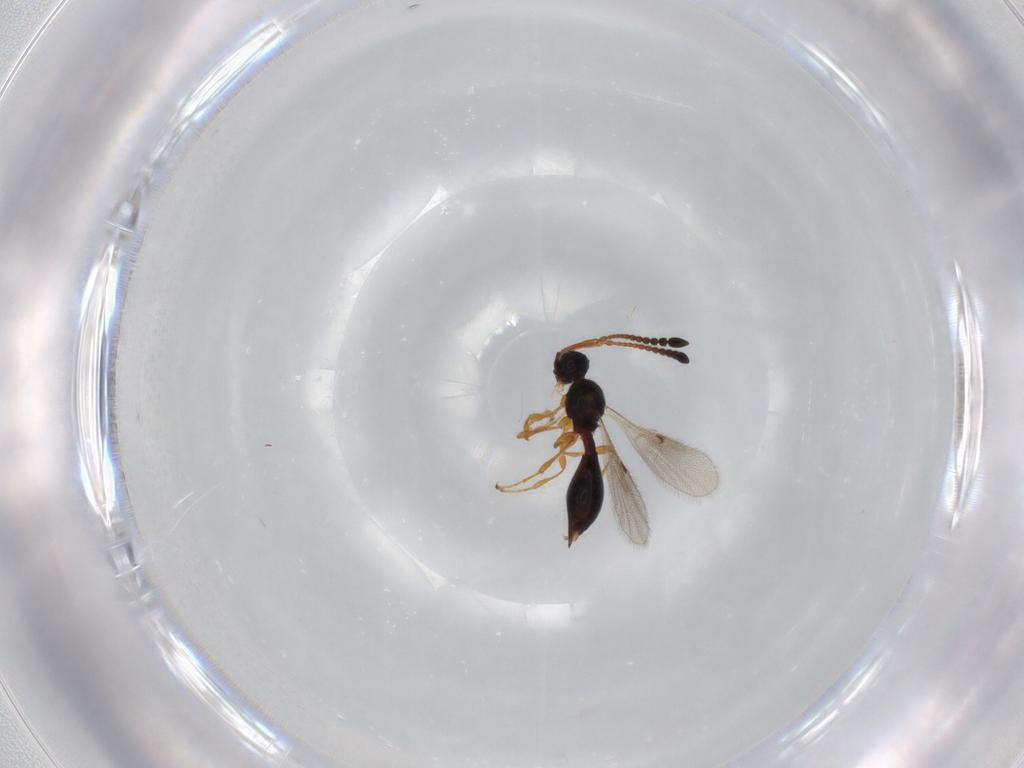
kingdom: Animalia
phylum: Arthropoda
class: Insecta
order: Hymenoptera
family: Diapriidae
